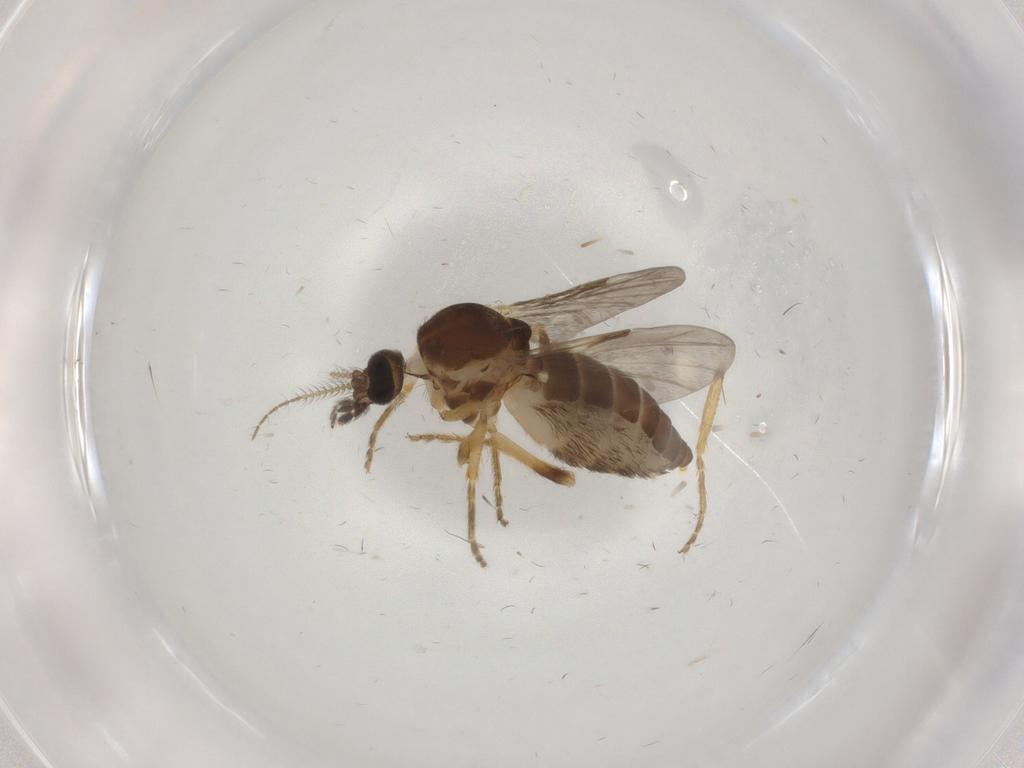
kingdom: Animalia
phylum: Arthropoda
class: Insecta
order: Diptera
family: Ceratopogonidae
